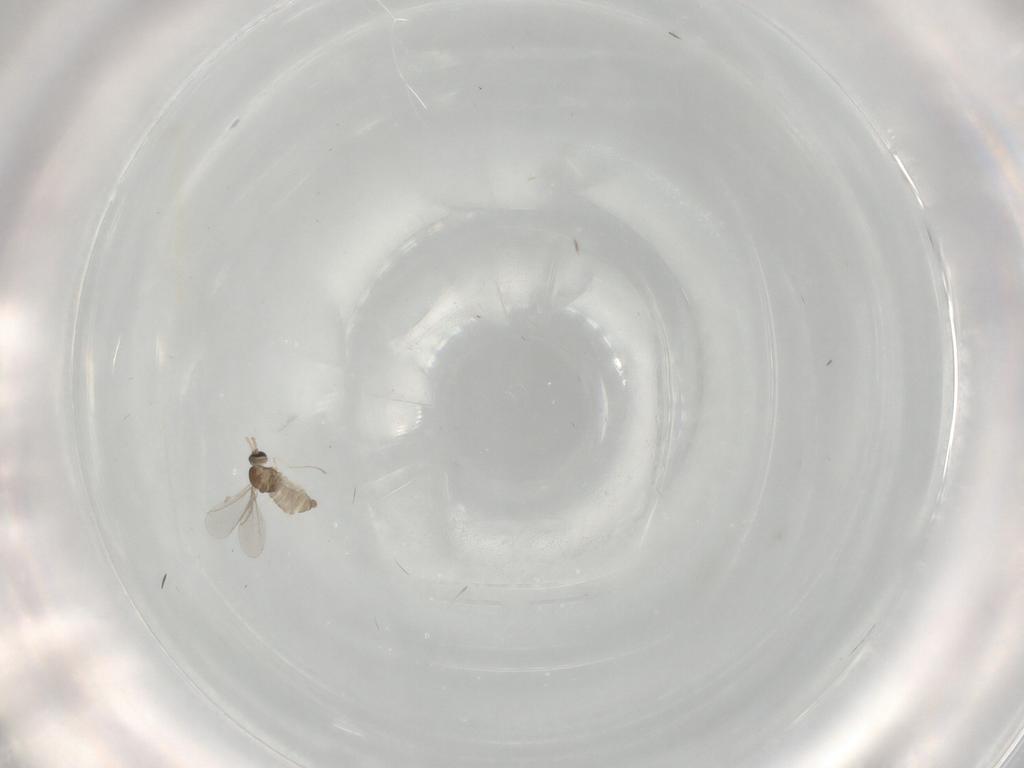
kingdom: Animalia
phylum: Arthropoda
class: Insecta
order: Diptera
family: Cecidomyiidae
